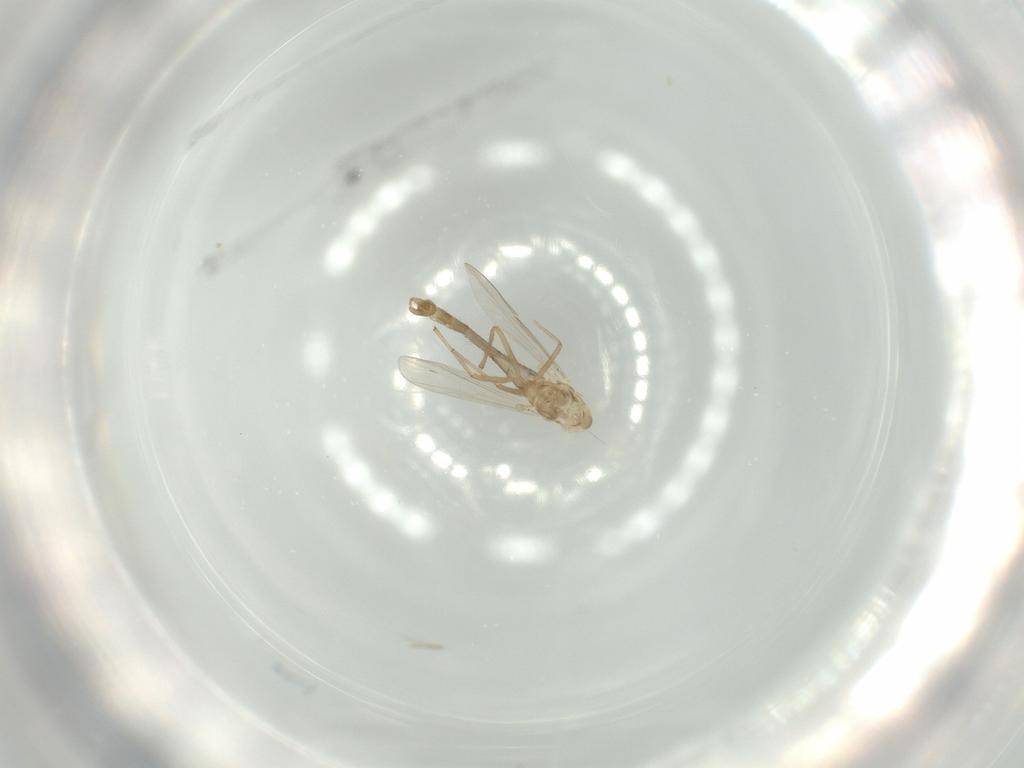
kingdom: Animalia
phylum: Arthropoda
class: Insecta
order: Diptera
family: Chironomidae
